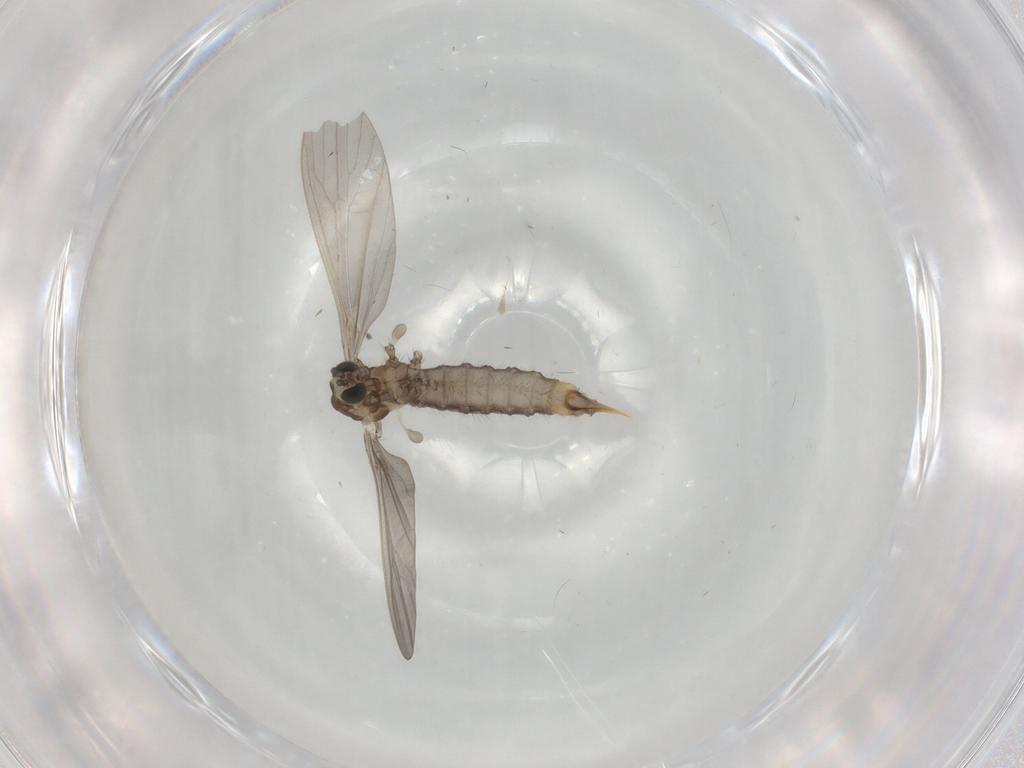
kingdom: Animalia
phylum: Arthropoda
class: Insecta
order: Diptera
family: Limoniidae
